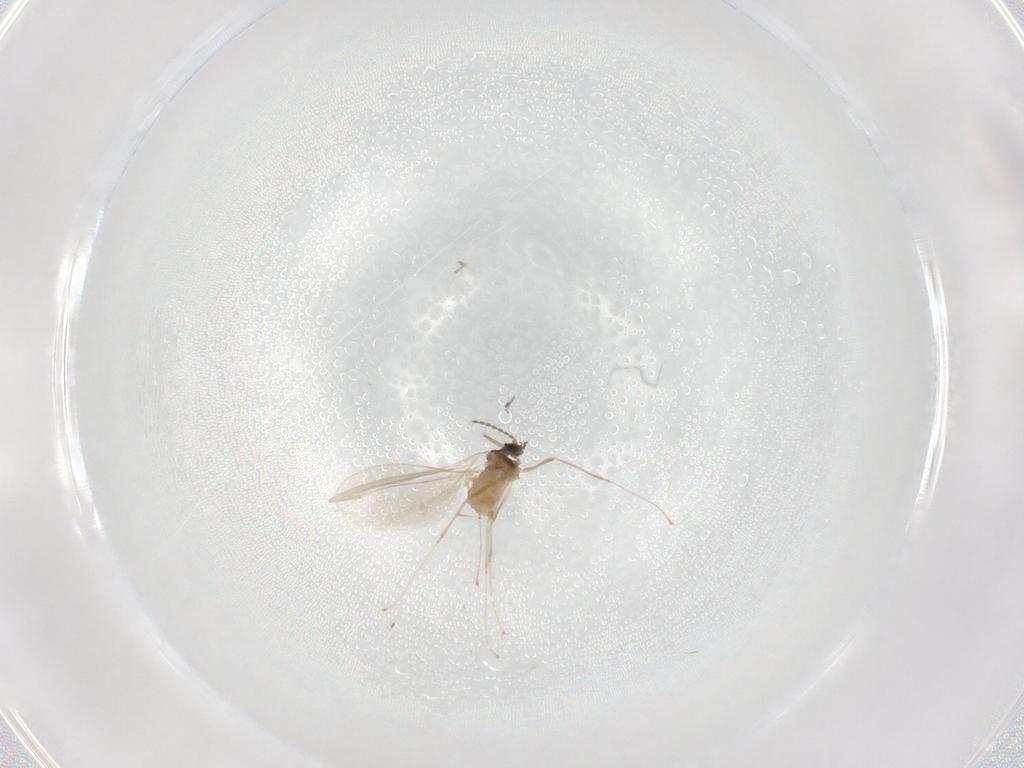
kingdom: Animalia
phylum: Arthropoda
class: Insecta
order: Diptera
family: Cecidomyiidae
